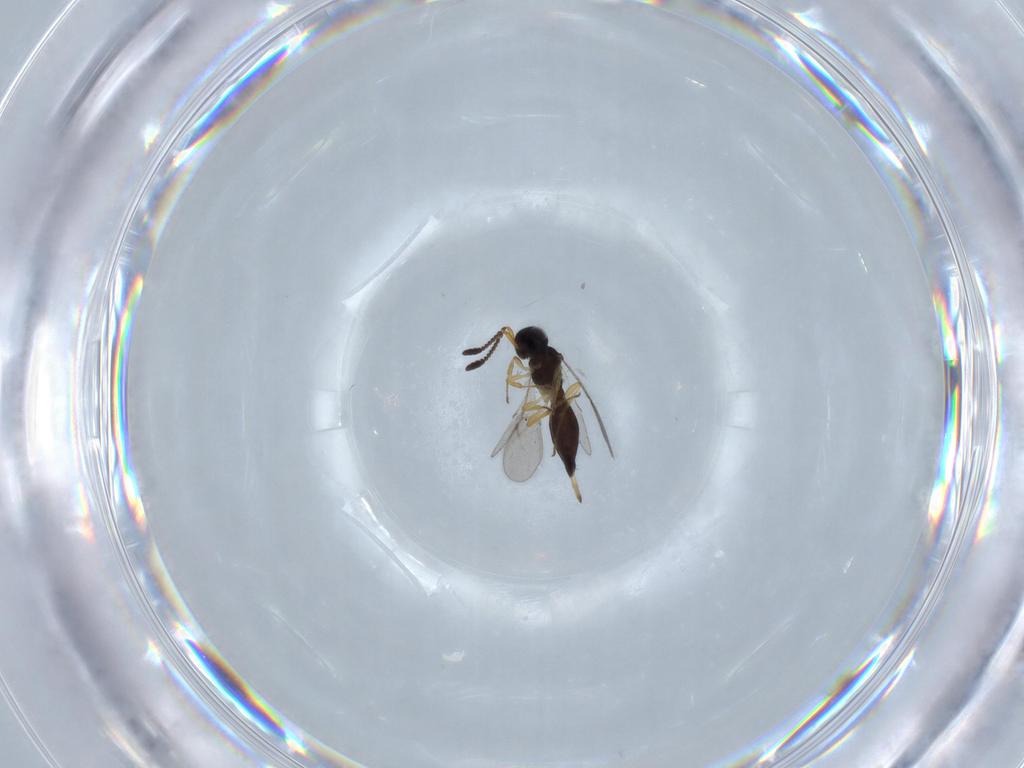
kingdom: Animalia
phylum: Arthropoda
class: Insecta
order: Hymenoptera
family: Scelionidae
